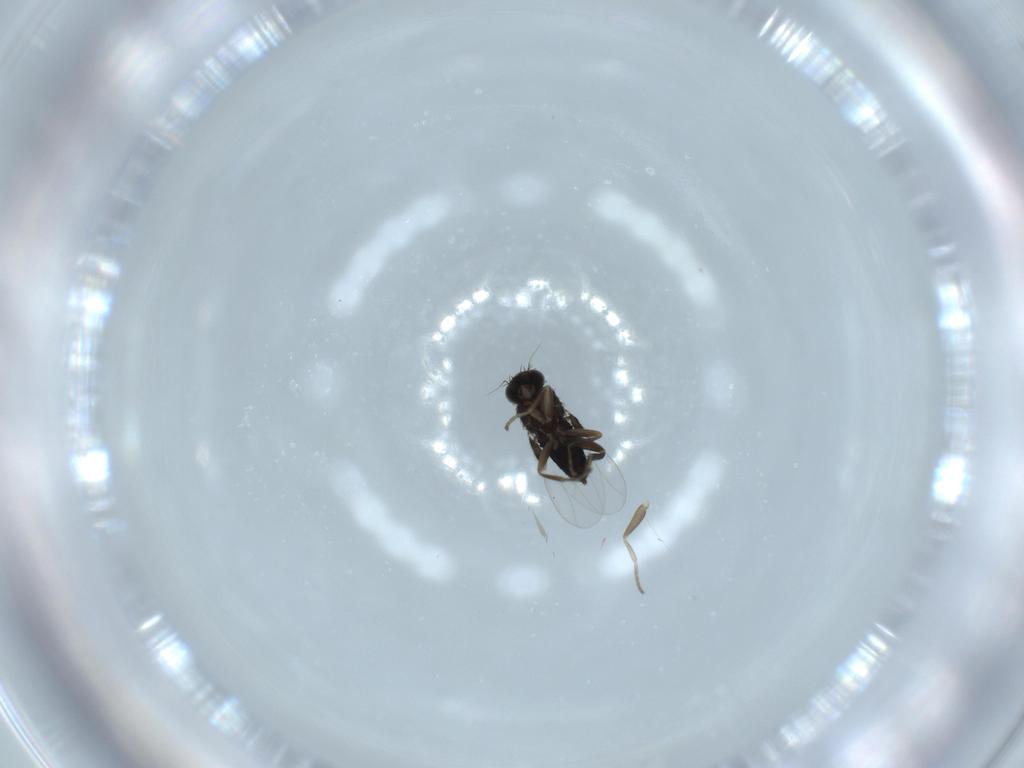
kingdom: Animalia
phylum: Arthropoda
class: Insecta
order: Diptera
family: Phoridae
